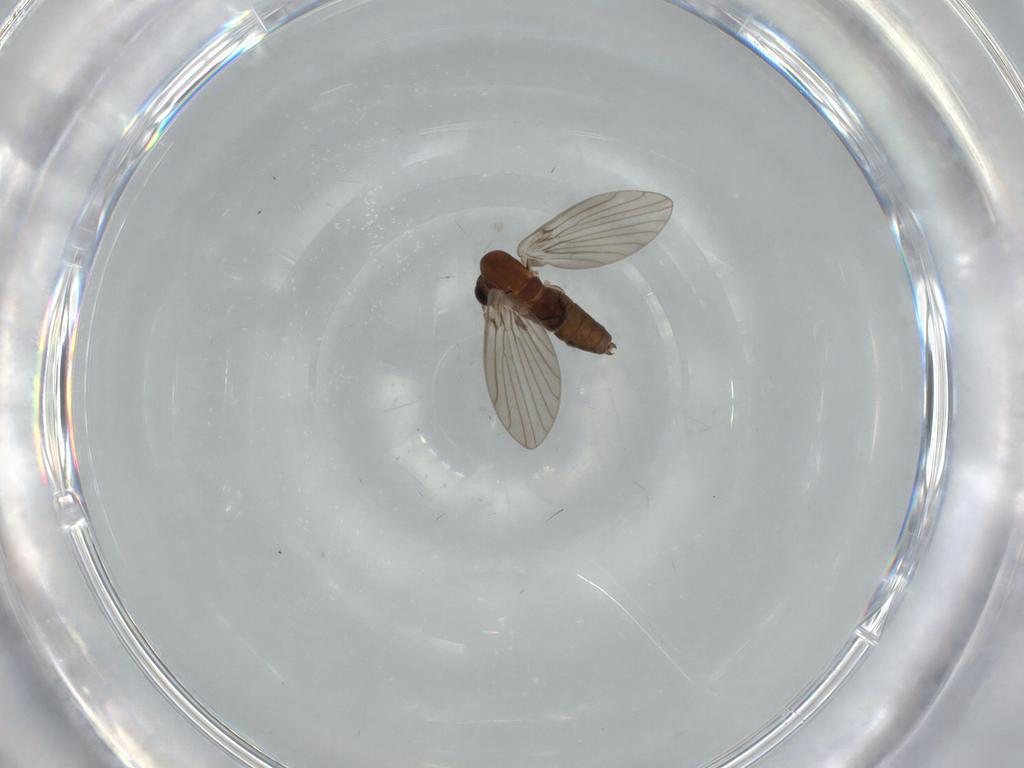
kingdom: Animalia
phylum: Arthropoda
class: Insecta
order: Diptera
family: Psychodidae
